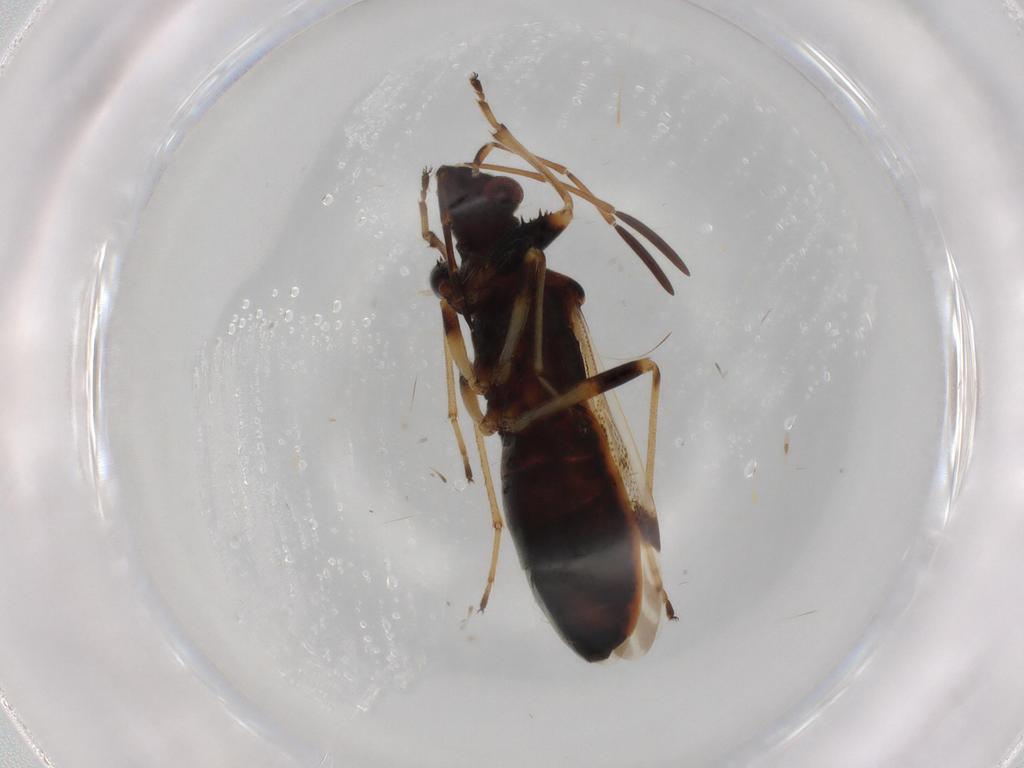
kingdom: Animalia
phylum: Arthropoda
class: Insecta
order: Hemiptera
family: Rhyparochromidae
